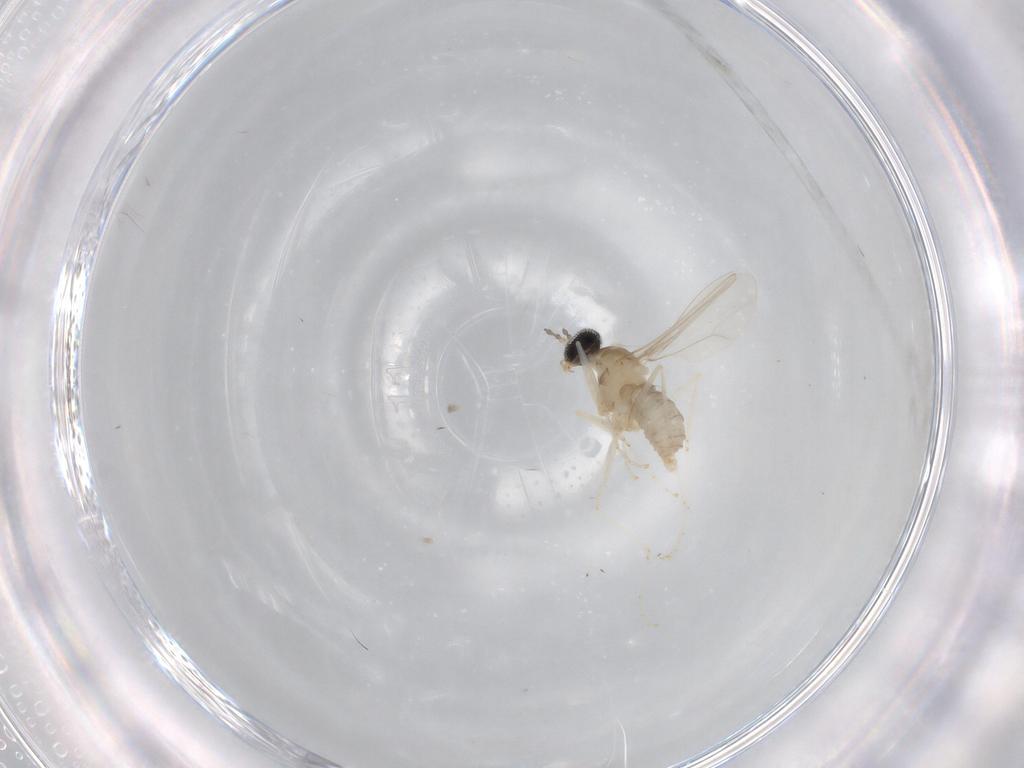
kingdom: Animalia
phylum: Arthropoda
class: Insecta
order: Diptera
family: Cecidomyiidae
